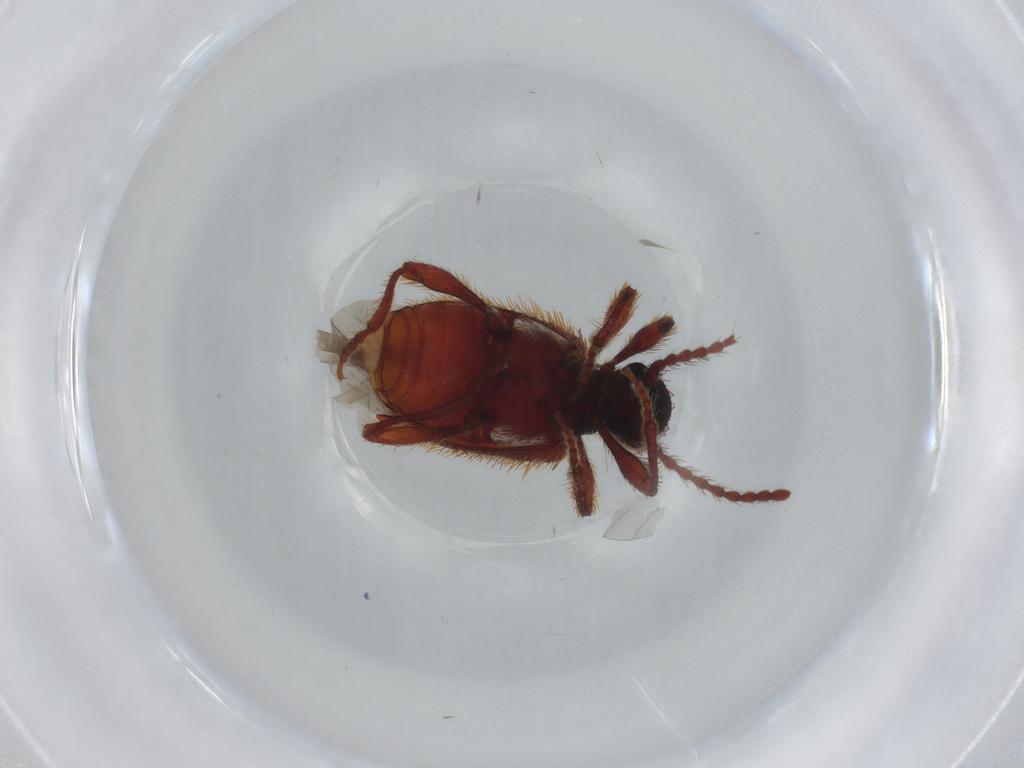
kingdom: Animalia
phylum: Arthropoda
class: Insecta
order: Coleoptera
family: Ptinidae
